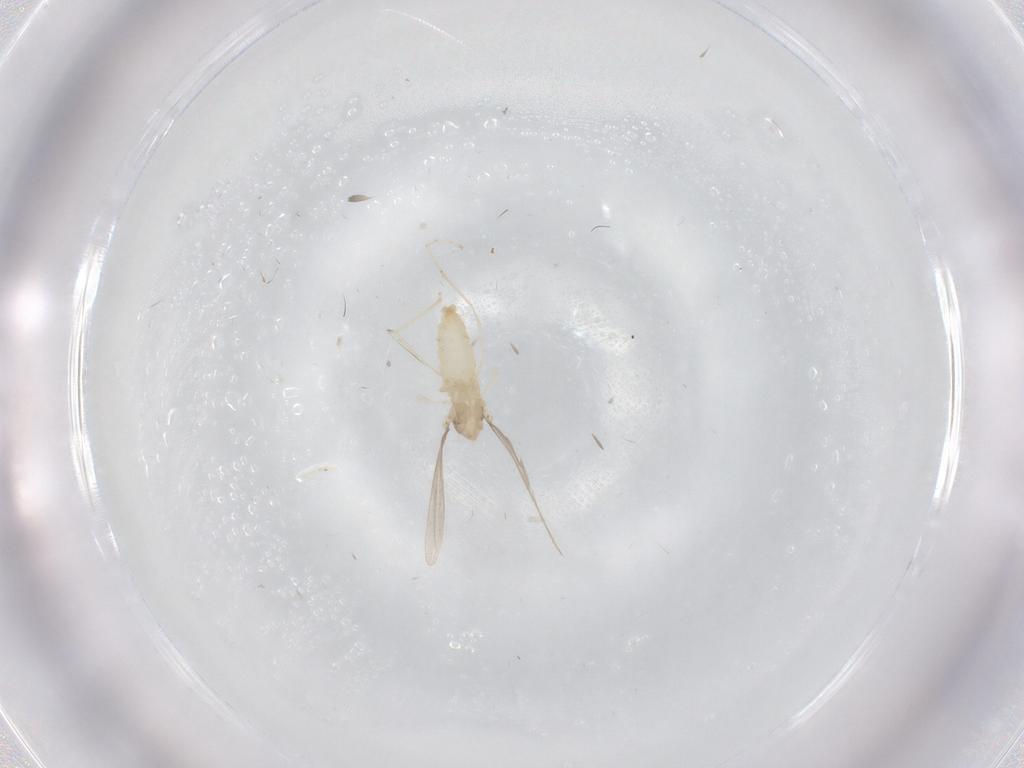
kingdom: Animalia
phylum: Arthropoda
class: Insecta
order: Diptera
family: Cecidomyiidae
